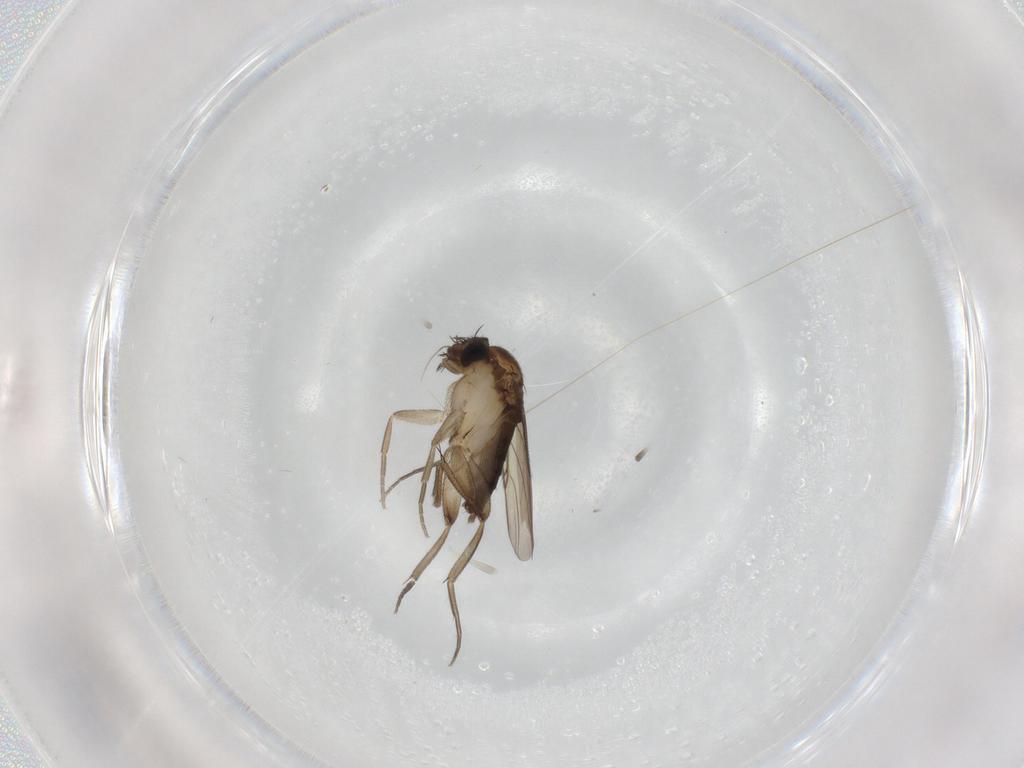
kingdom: Animalia
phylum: Arthropoda
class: Insecta
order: Diptera
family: Phoridae
